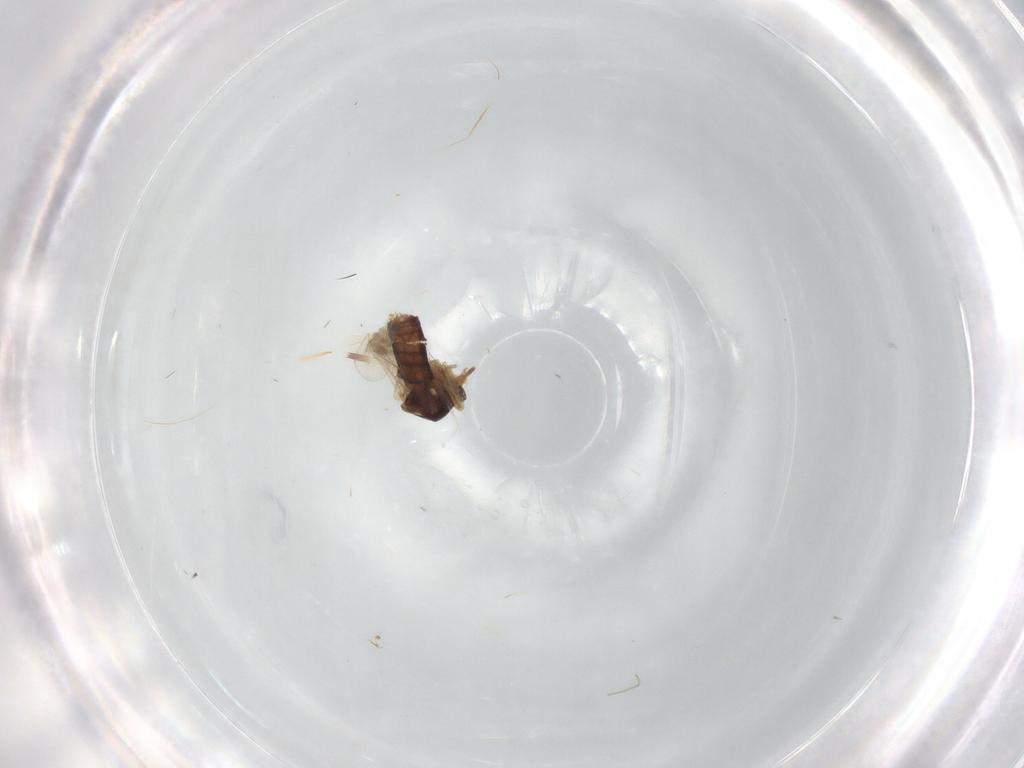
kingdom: Animalia
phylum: Arthropoda
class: Insecta
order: Diptera
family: Ceratopogonidae
